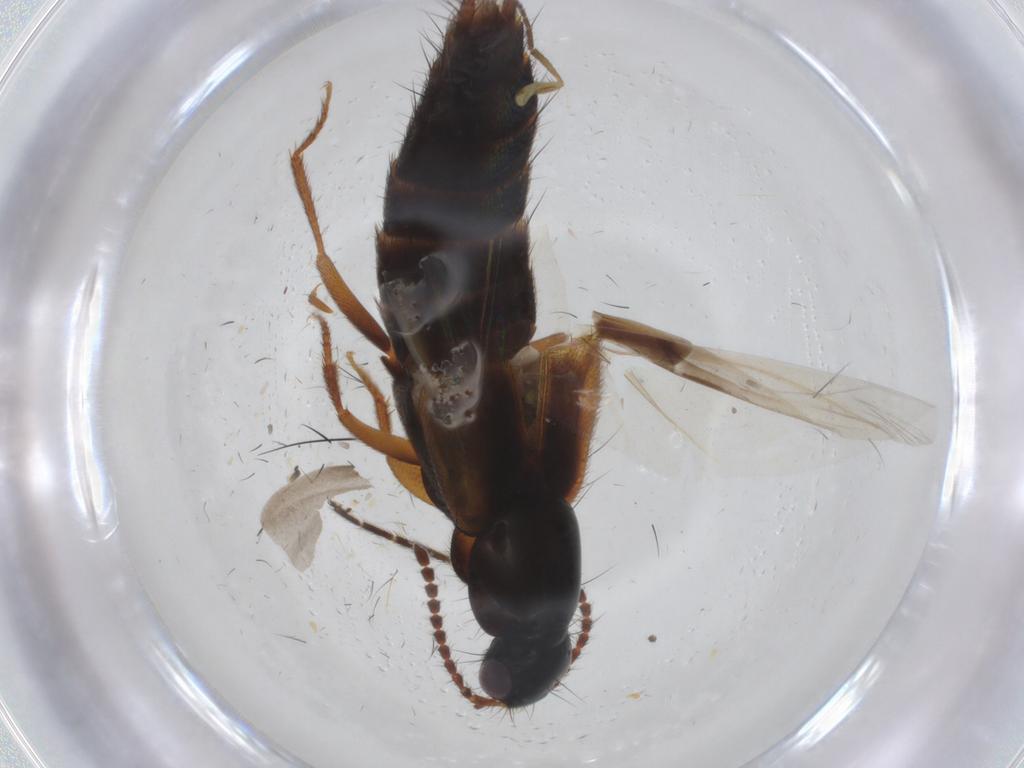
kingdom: Animalia
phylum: Arthropoda
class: Insecta
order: Coleoptera
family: Staphylinidae
